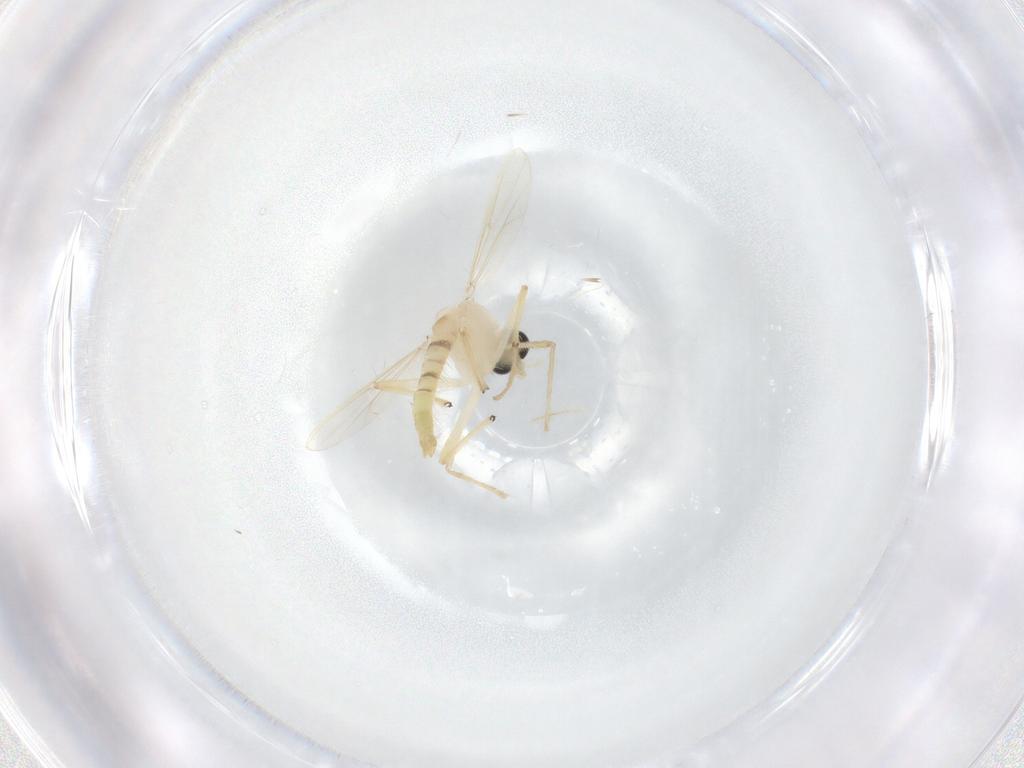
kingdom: Animalia
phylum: Arthropoda
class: Insecta
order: Diptera
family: Chironomidae
